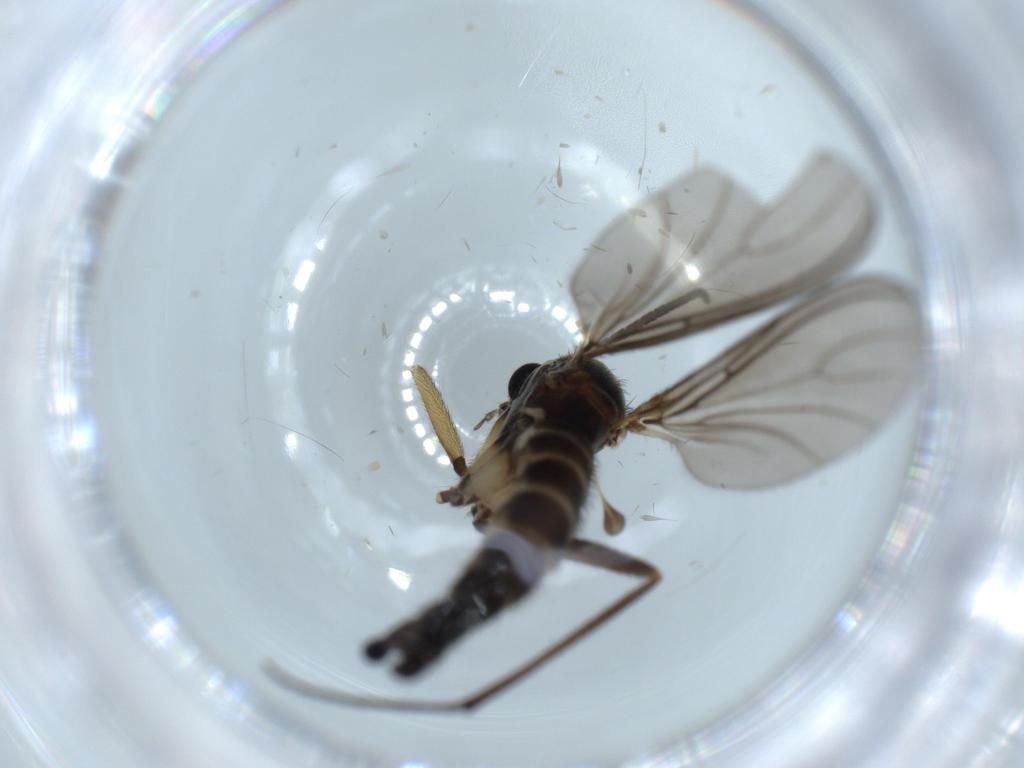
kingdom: Animalia
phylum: Arthropoda
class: Insecta
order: Diptera
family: Sciaridae
